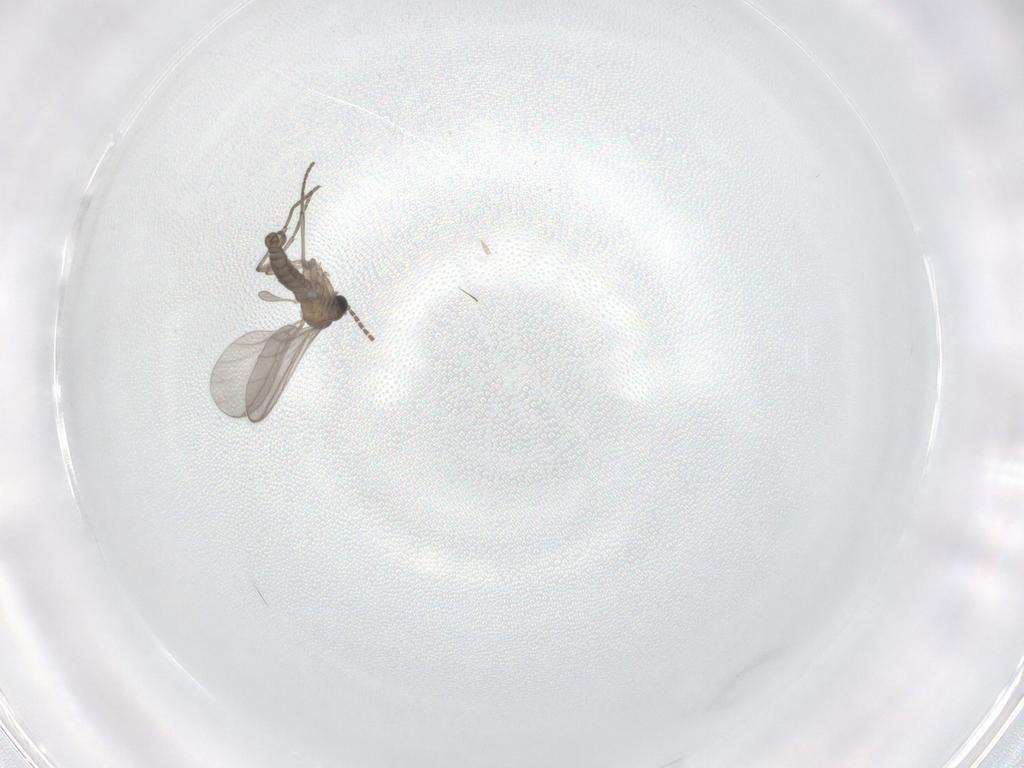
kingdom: Animalia
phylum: Arthropoda
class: Insecta
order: Diptera
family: Sciaridae
